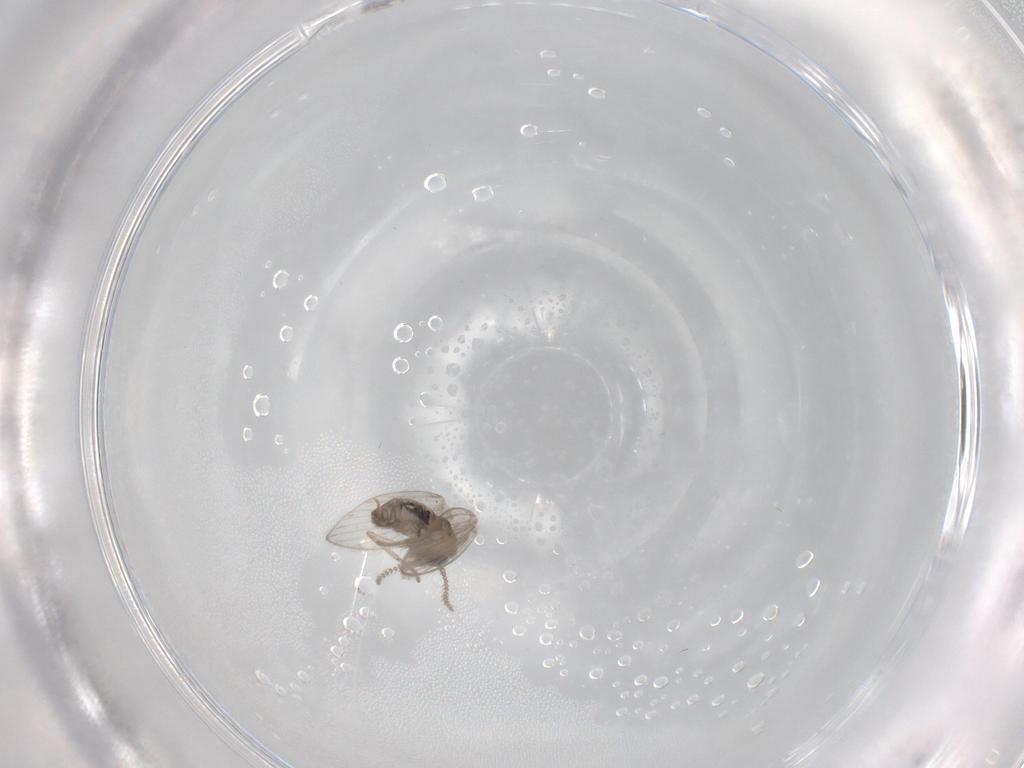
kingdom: Animalia
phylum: Arthropoda
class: Insecta
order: Diptera
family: Psychodidae
